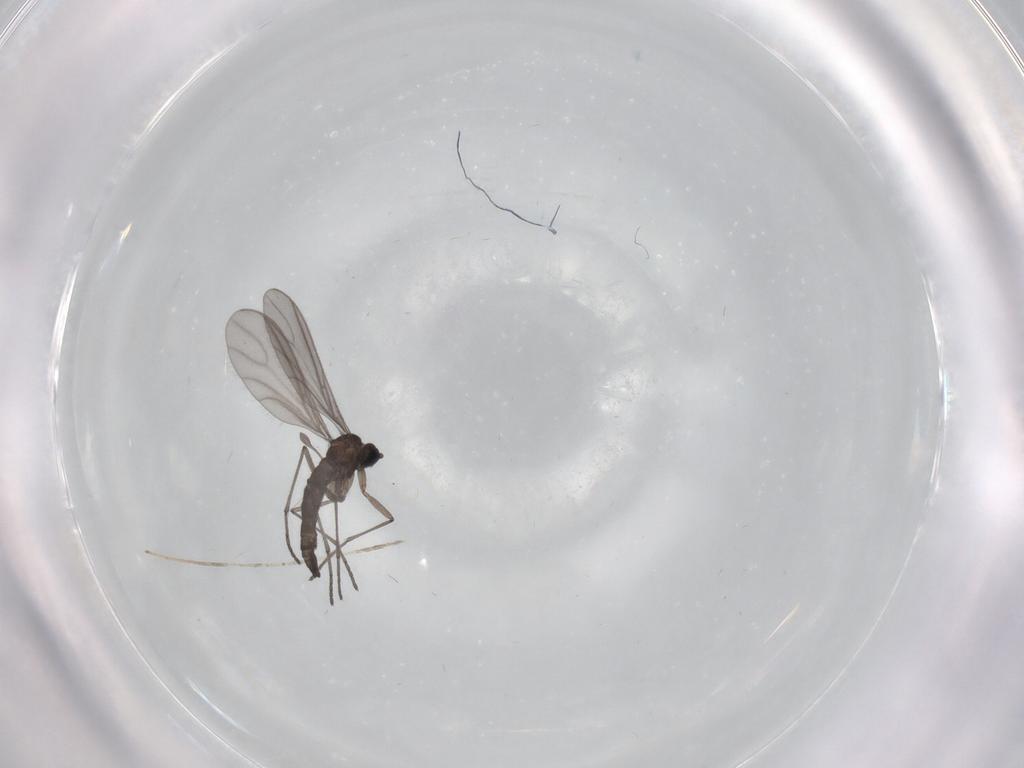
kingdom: Animalia
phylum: Arthropoda
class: Insecta
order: Diptera
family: Sciaridae
